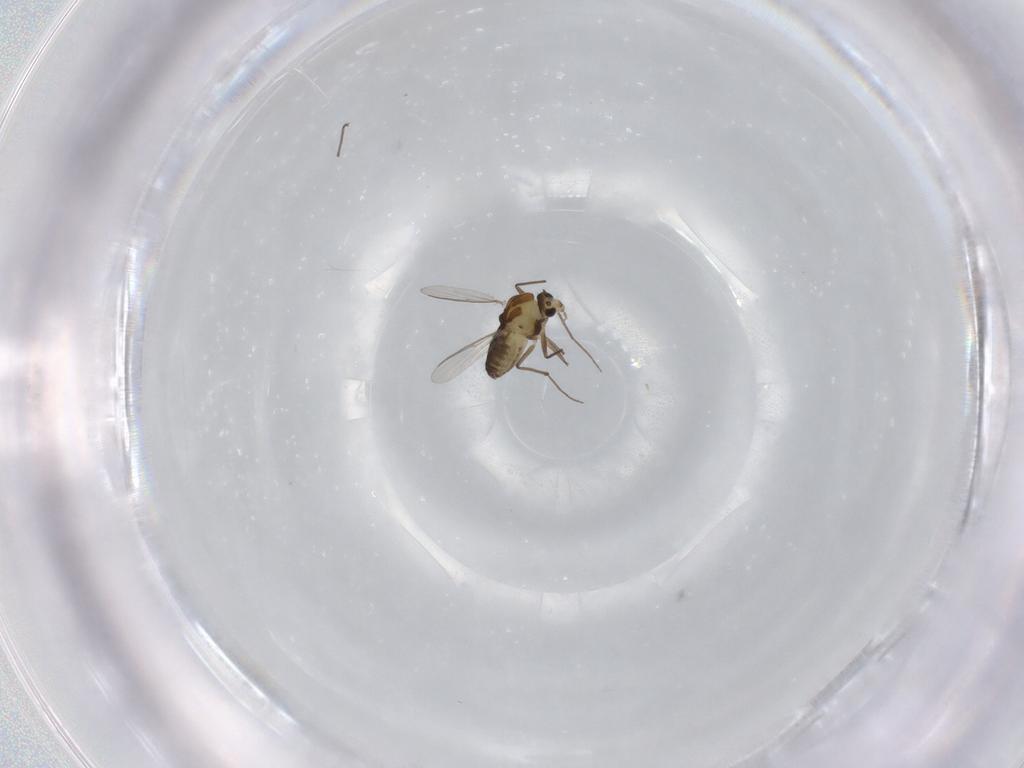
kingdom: Animalia
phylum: Arthropoda
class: Insecta
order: Diptera
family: Chironomidae
